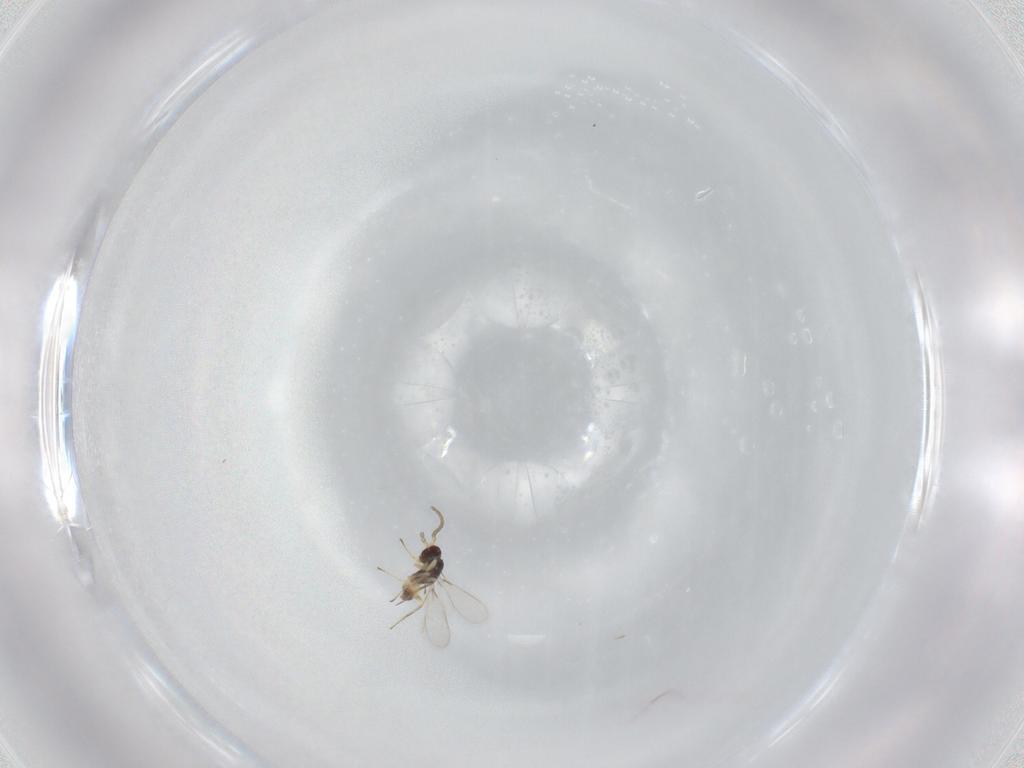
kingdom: Animalia
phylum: Arthropoda
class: Insecta
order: Hymenoptera
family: Mymaridae
